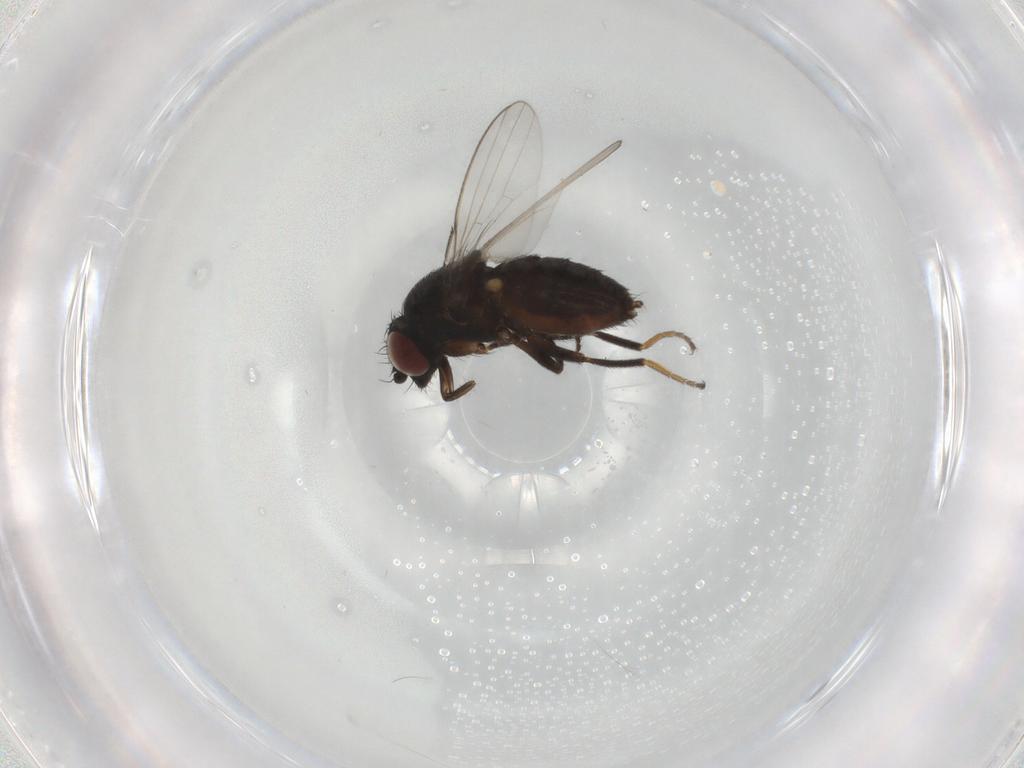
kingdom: Animalia
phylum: Arthropoda
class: Insecta
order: Diptera
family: Milichiidae
